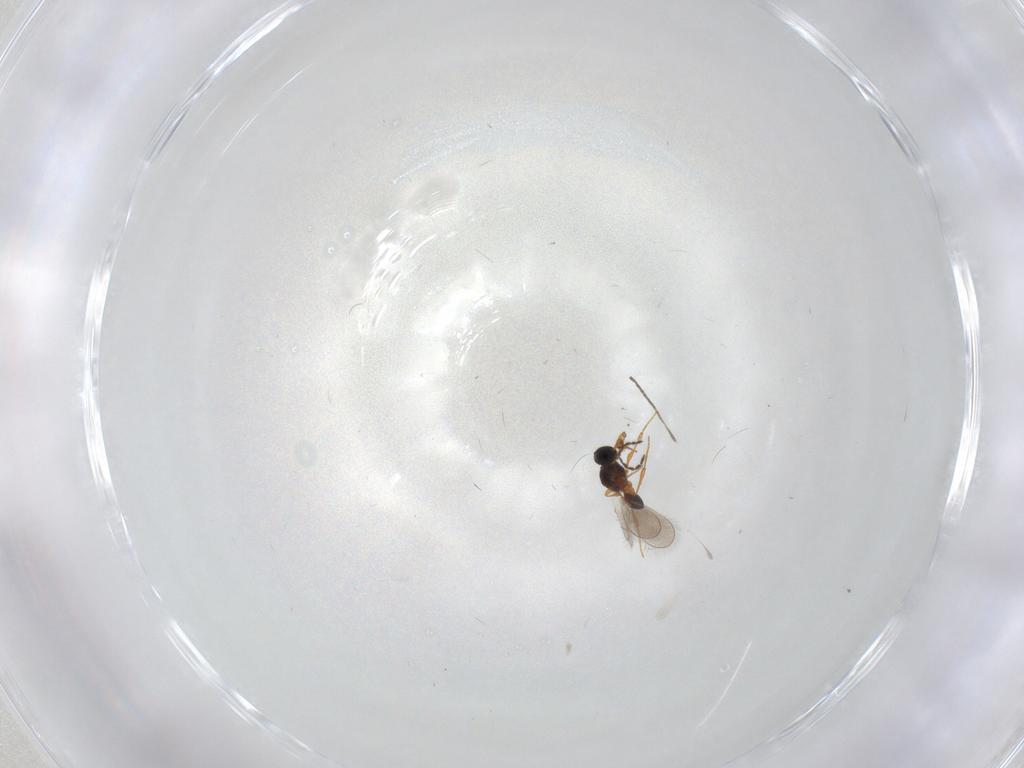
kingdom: Animalia
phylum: Arthropoda
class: Insecta
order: Hymenoptera
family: Platygastridae
